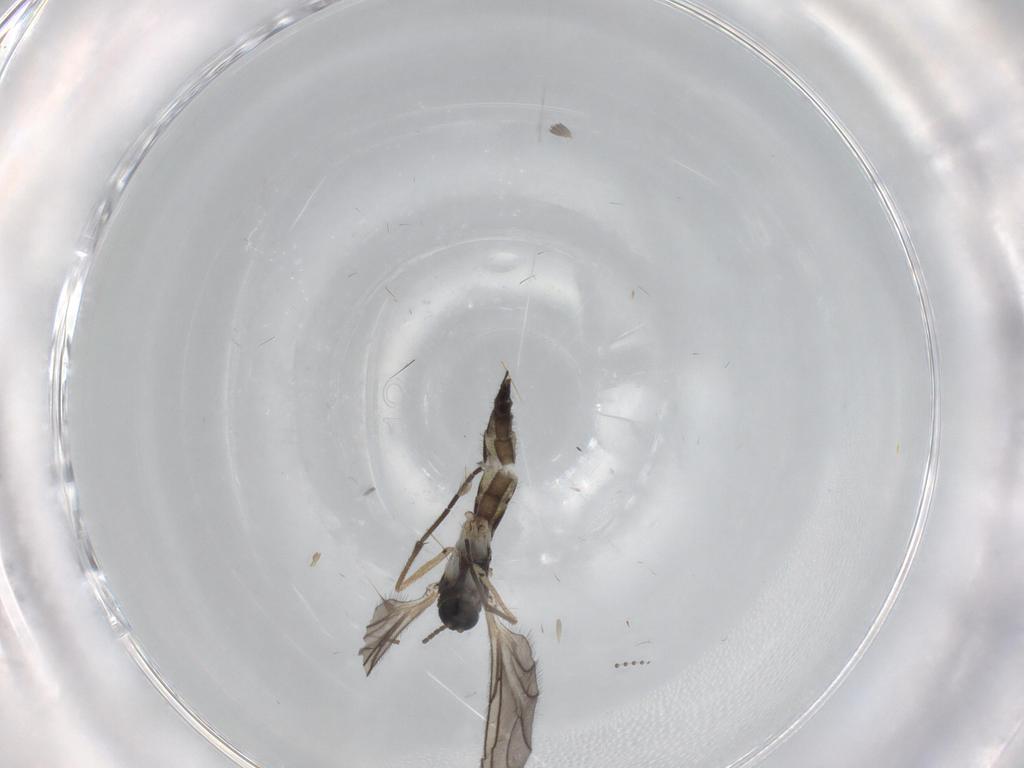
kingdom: Animalia
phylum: Arthropoda
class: Insecta
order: Diptera
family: Sciaridae
